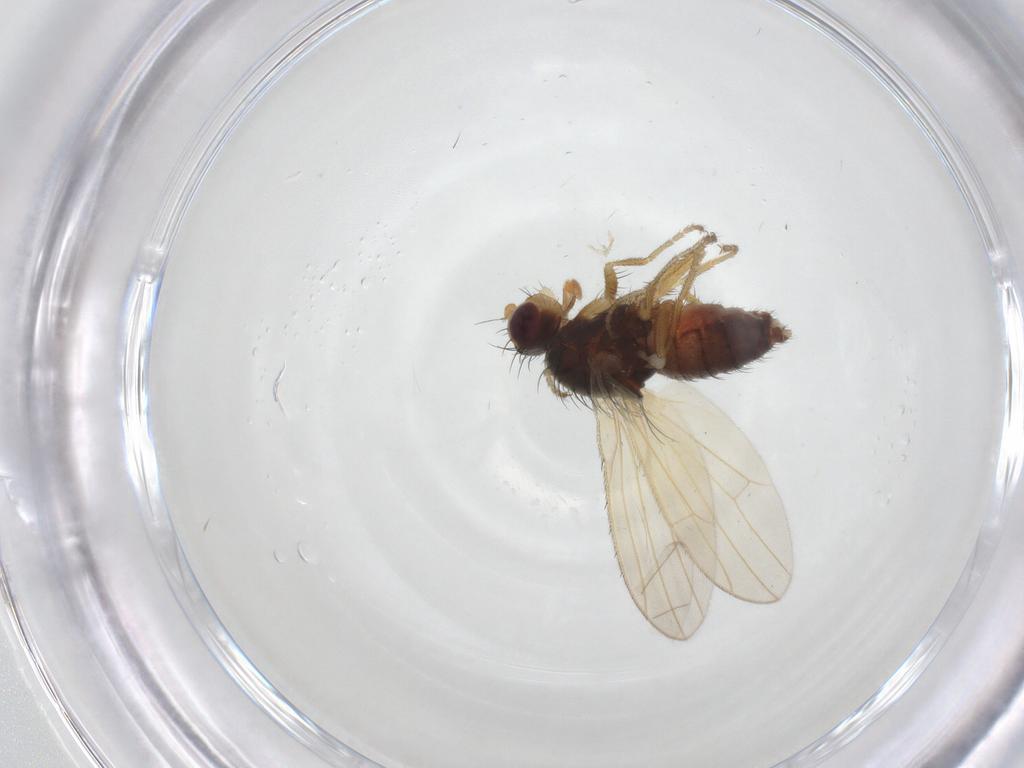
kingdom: Animalia
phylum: Arthropoda
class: Insecta
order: Diptera
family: Heleomyzidae
